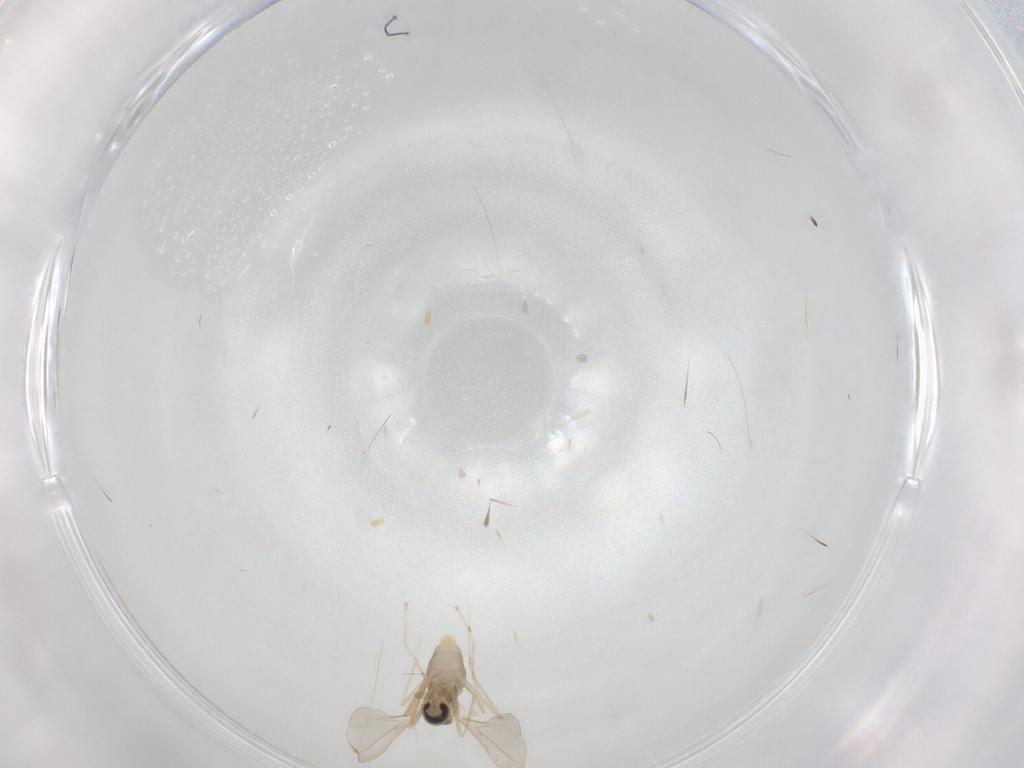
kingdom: Animalia
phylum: Arthropoda
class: Insecta
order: Diptera
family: Cecidomyiidae
